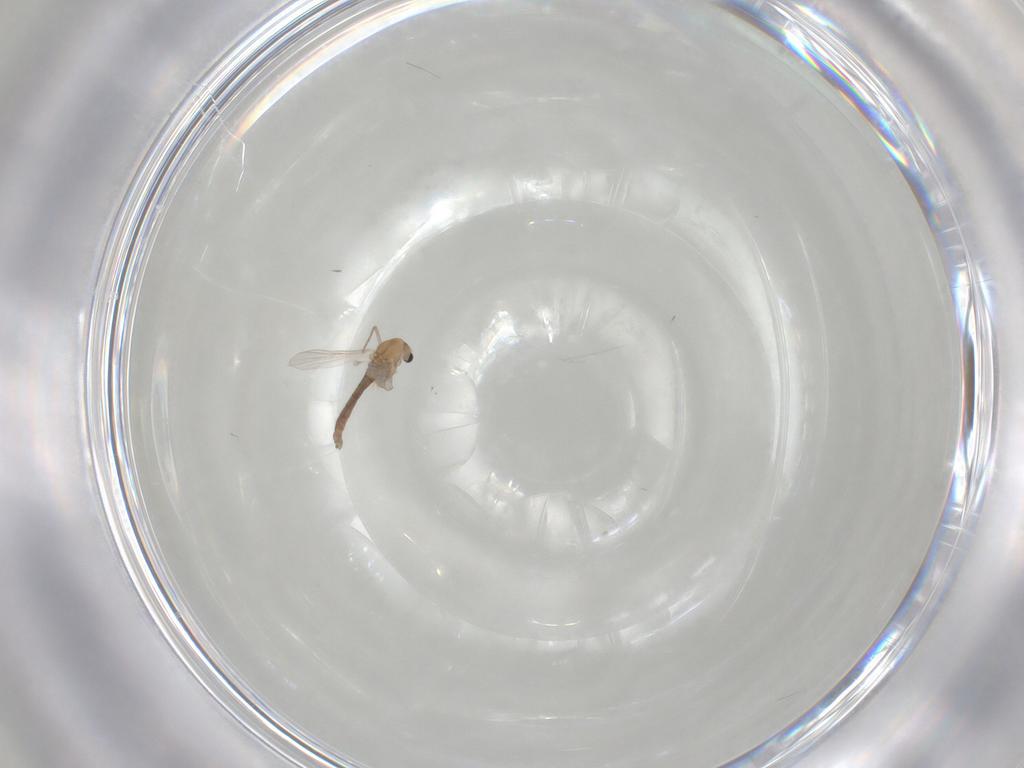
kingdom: Animalia
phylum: Arthropoda
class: Insecta
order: Diptera
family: Chironomidae
